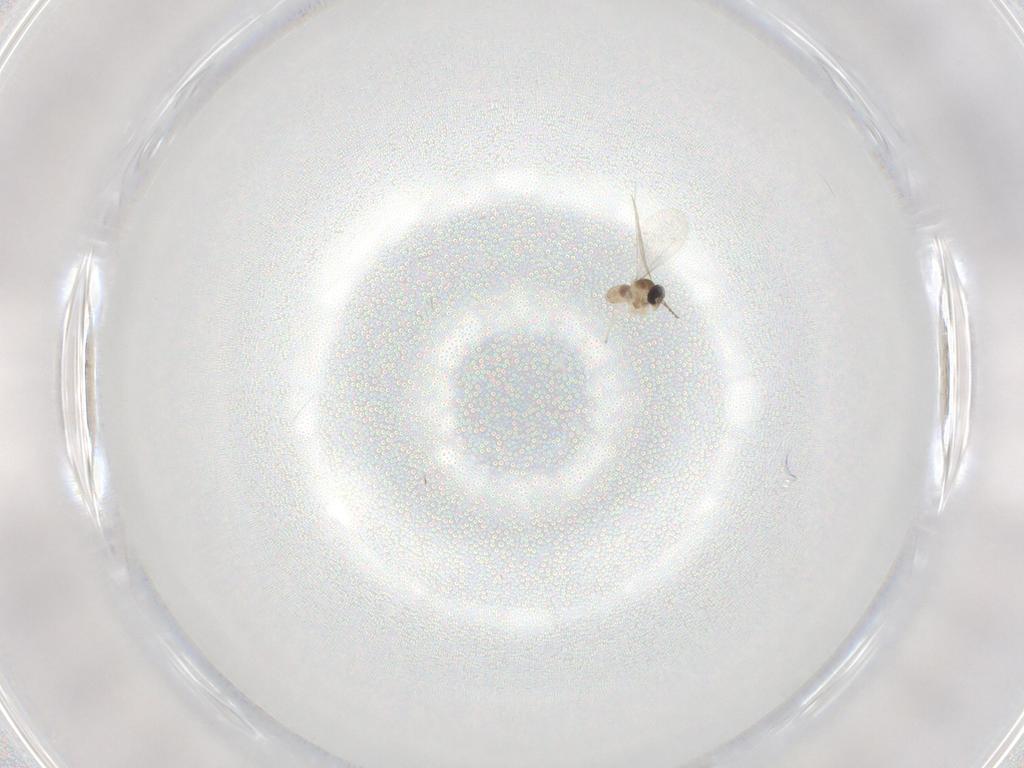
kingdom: Animalia
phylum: Arthropoda
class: Insecta
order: Diptera
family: Cecidomyiidae
